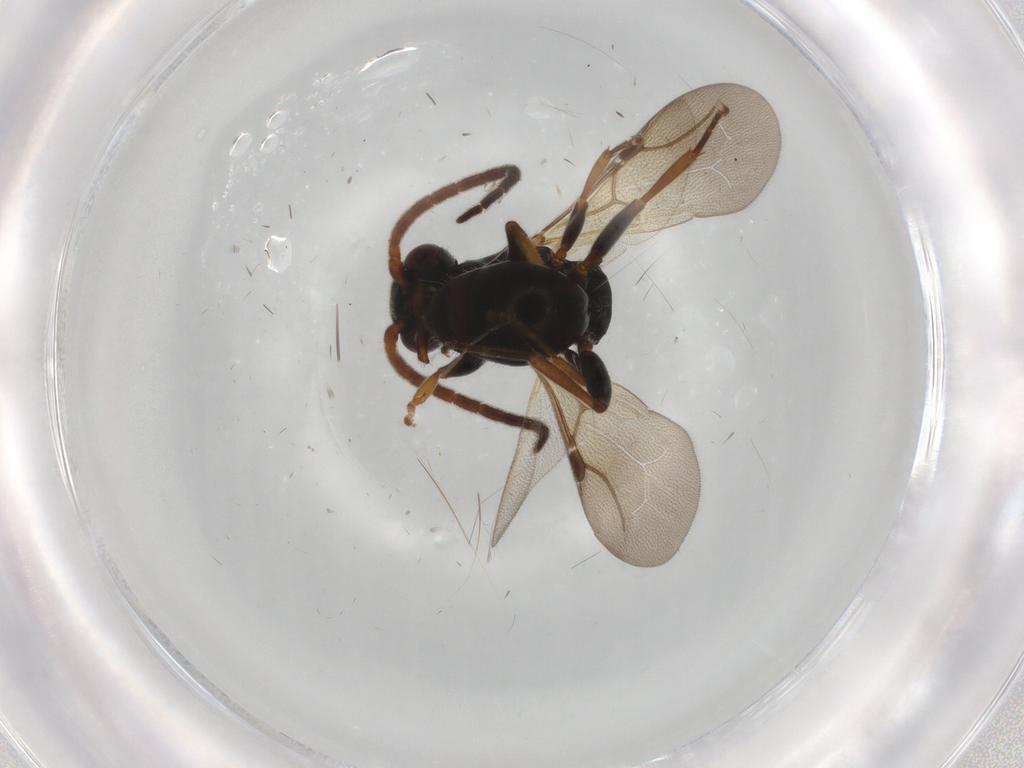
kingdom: Animalia
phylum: Arthropoda
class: Insecta
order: Hymenoptera
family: Bethylidae
